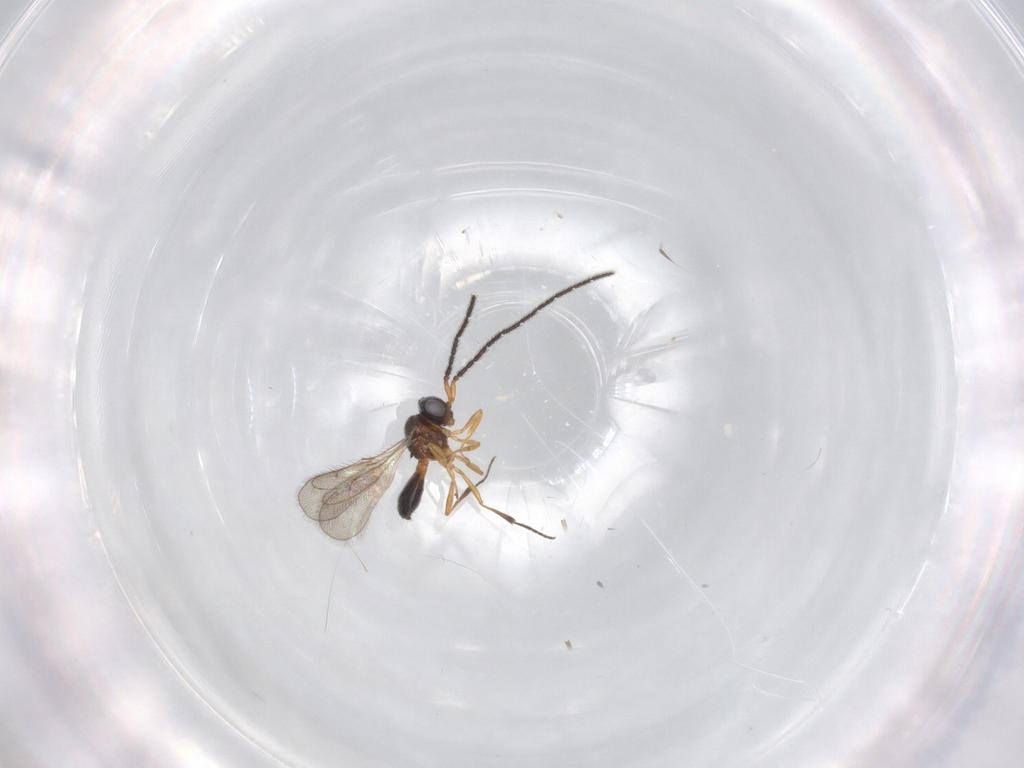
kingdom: Animalia
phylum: Arthropoda
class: Insecta
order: Hymenoptera
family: Scelionidae
